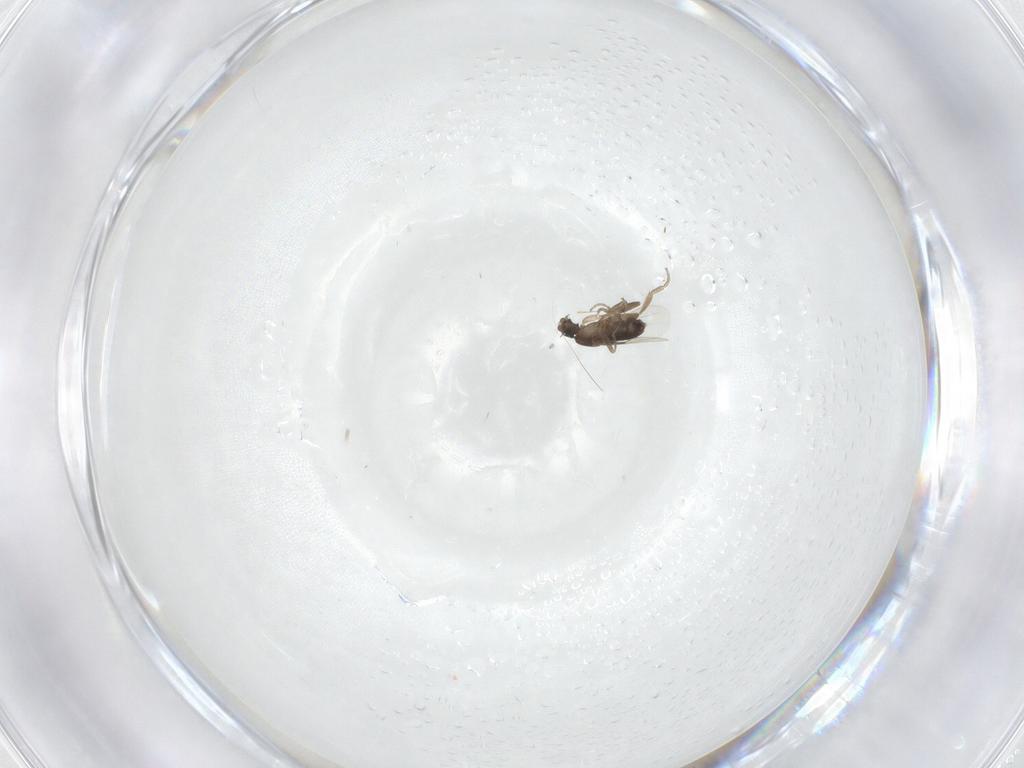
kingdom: Animalia
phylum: Arthropoda
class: Insecta
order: Diptera
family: Phoridae
